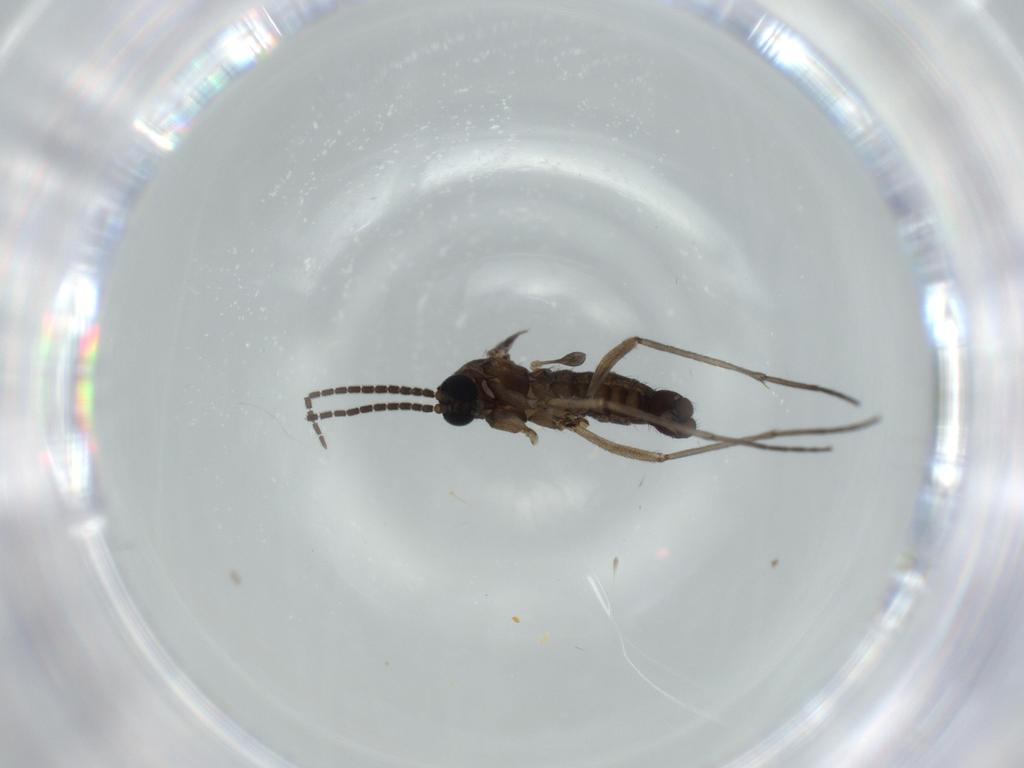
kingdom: Animalia
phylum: Arthropoda
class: Insecta
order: Diptera
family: Sciaridae
